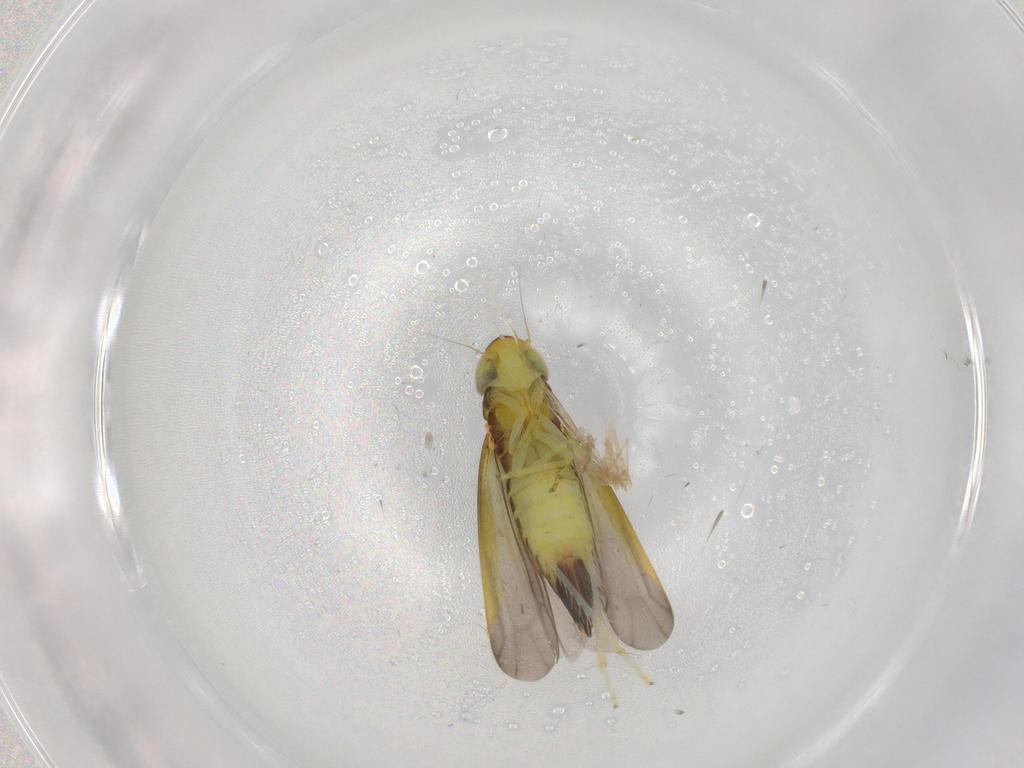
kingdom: Animalia
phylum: Arthropoda
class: Insecta
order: Hemiptera
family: Cicadellidae
